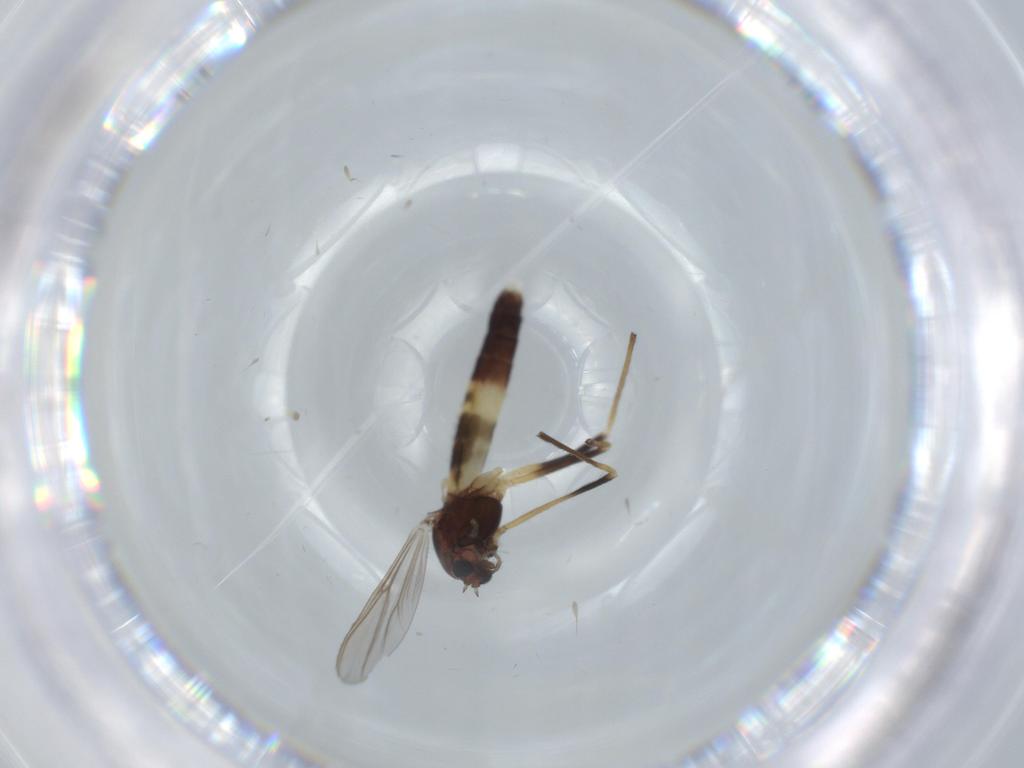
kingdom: Animalia
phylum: Arthropoda
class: Insecta
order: Diptera
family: Chironomidae
